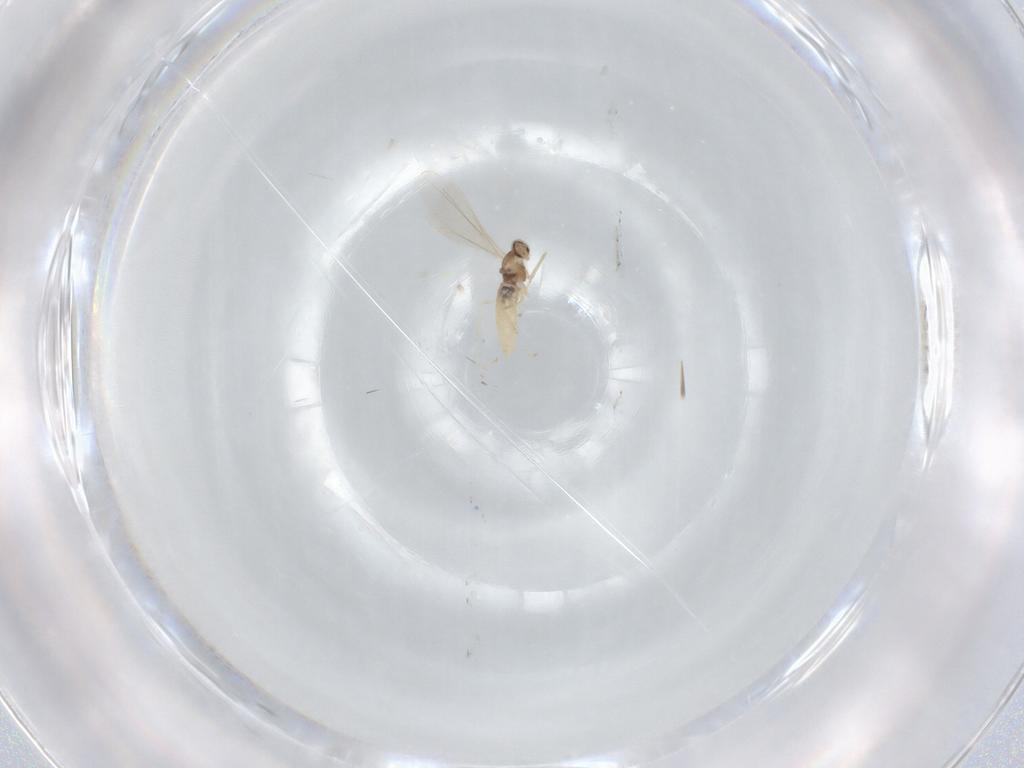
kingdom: Animalia
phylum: Arthropoda
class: Insecta
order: Diptera
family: Cecidomyiidae
